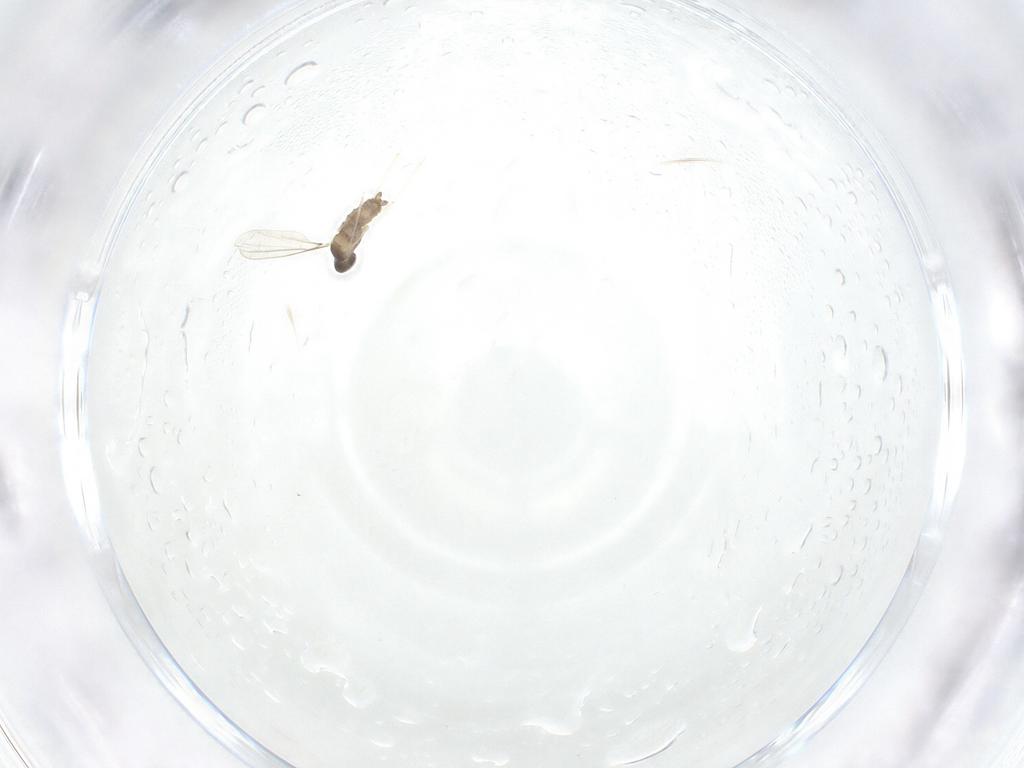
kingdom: Animalia
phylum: Arthropoda
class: Insecta
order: Diptera
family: Cecidomyiidae
